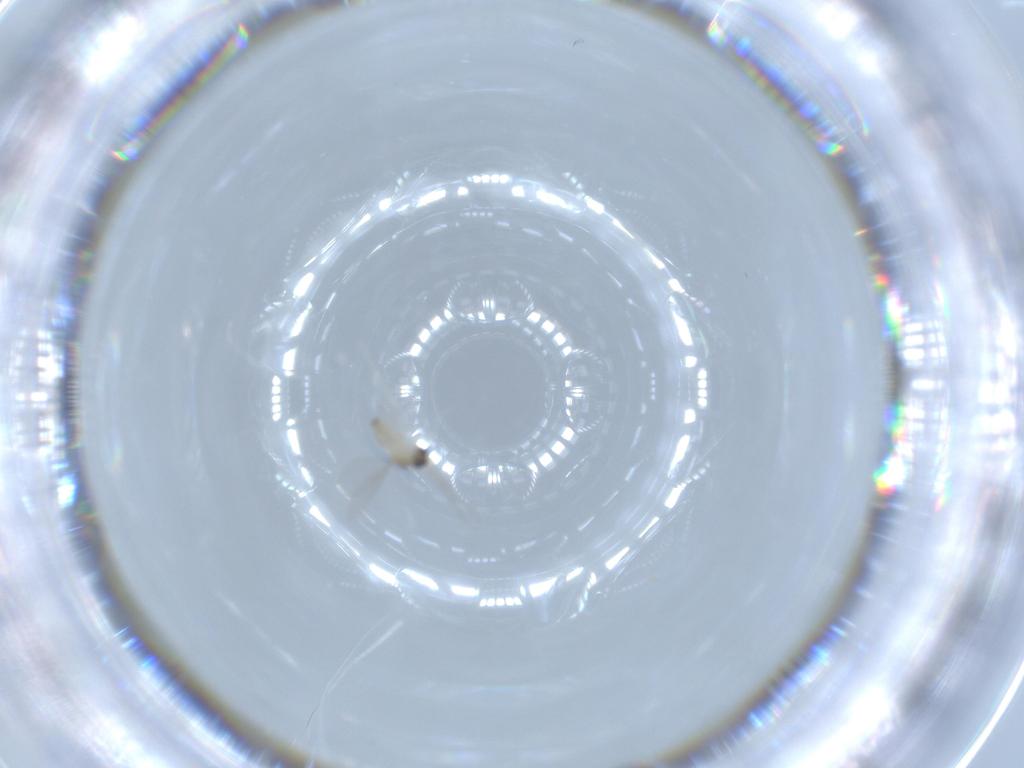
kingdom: Animalia
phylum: Arthropoda
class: Insecta
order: Diptera
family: Cecidomyiidae
